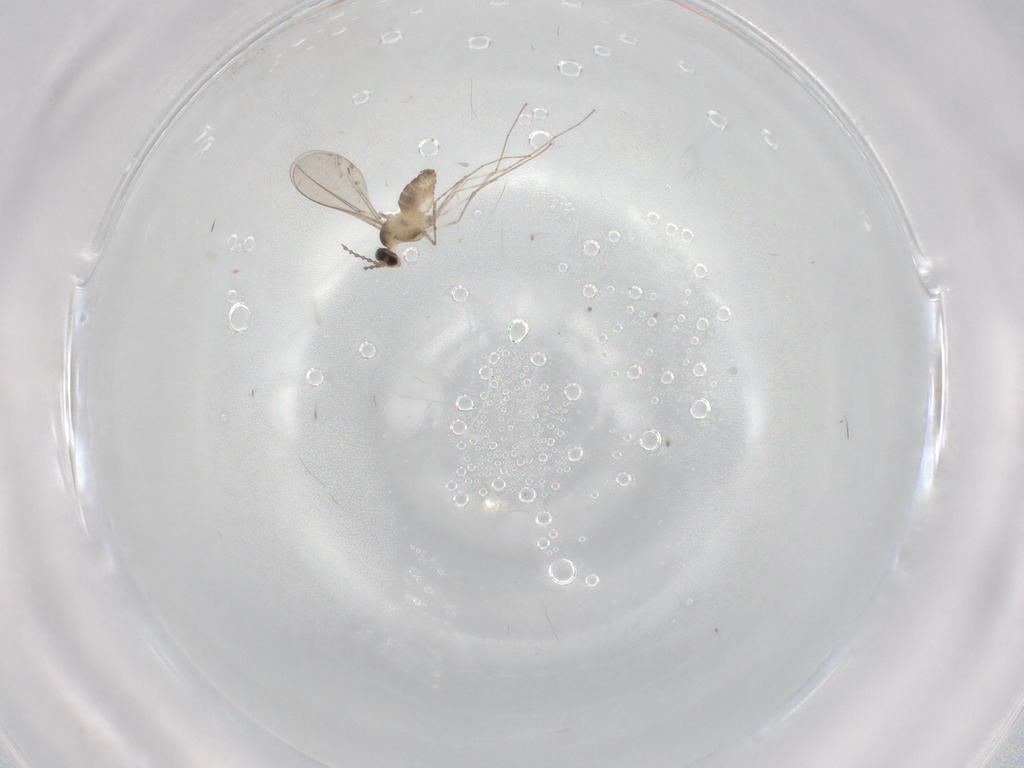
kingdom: Animalia
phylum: Arthropoda
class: Insecta
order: Diptera
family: Cecidomyiidae
